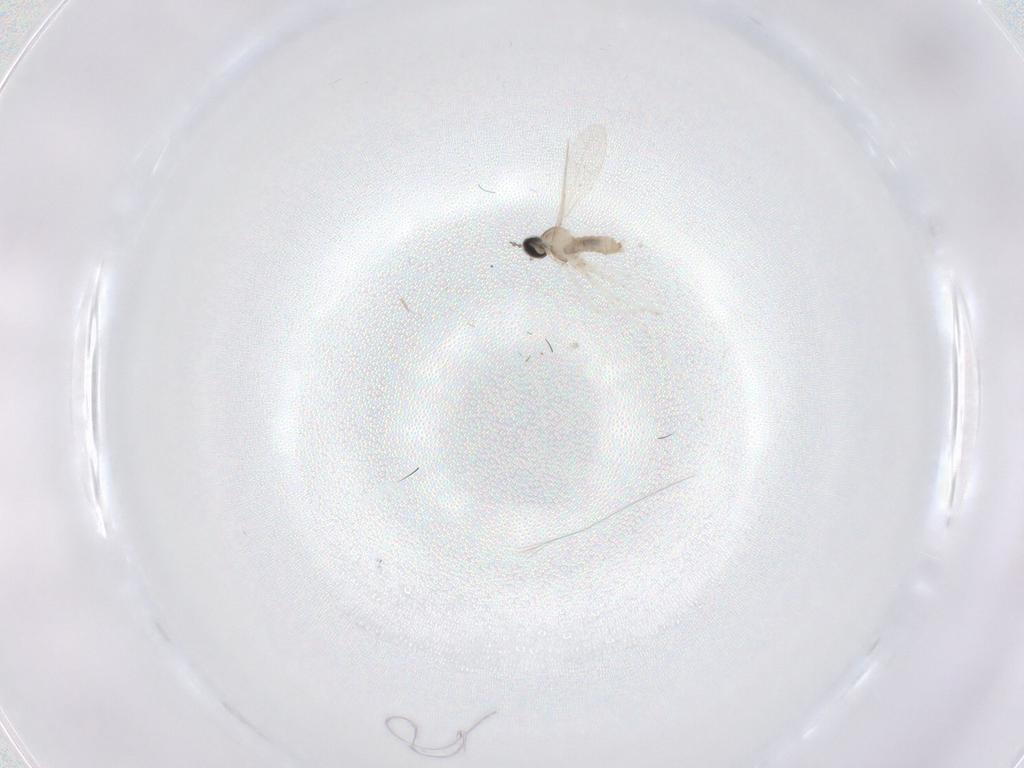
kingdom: Animalia
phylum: Arthropoda
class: Insecta
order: Diptera
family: Cecidomyiidae
